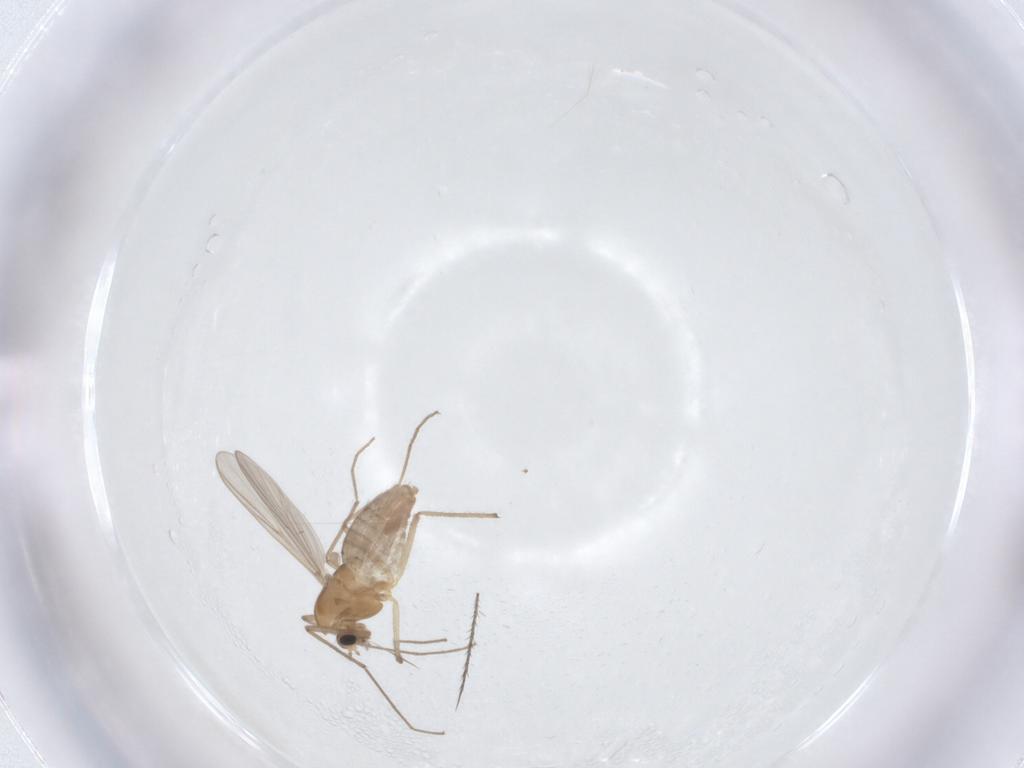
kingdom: Animalia
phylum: Arthropoda
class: Insecta
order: Diptera
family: Chironomidae
